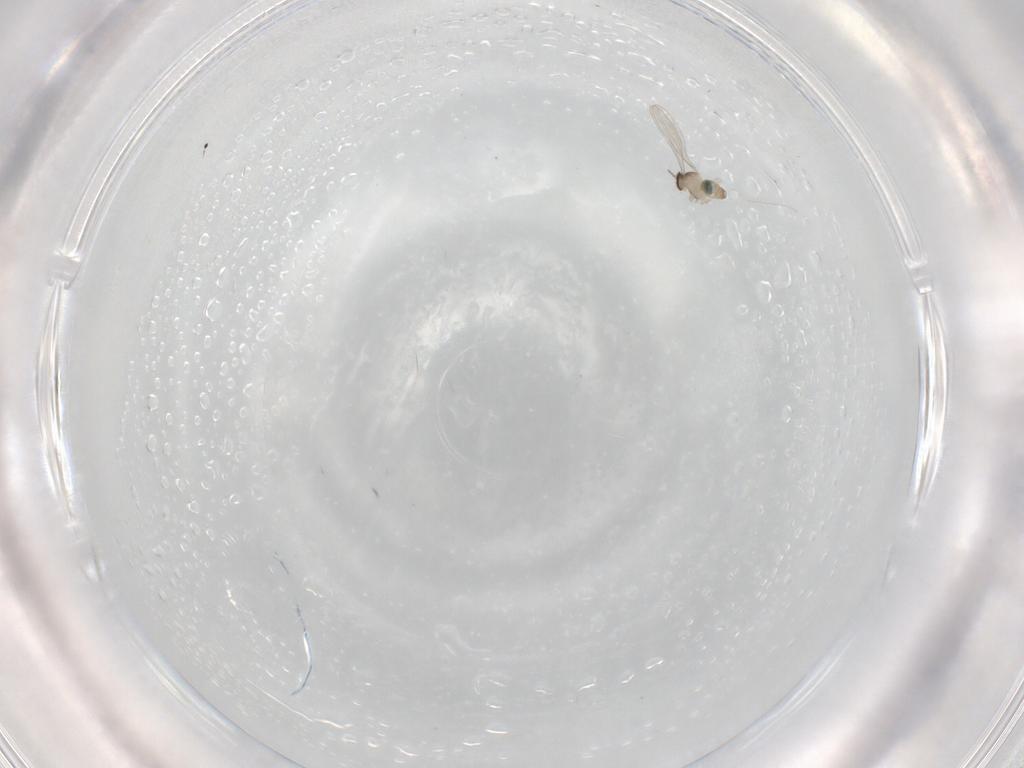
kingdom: Animalia
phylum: Arthropoda
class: Insecta
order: Diptera
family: Cecidomyiidae
